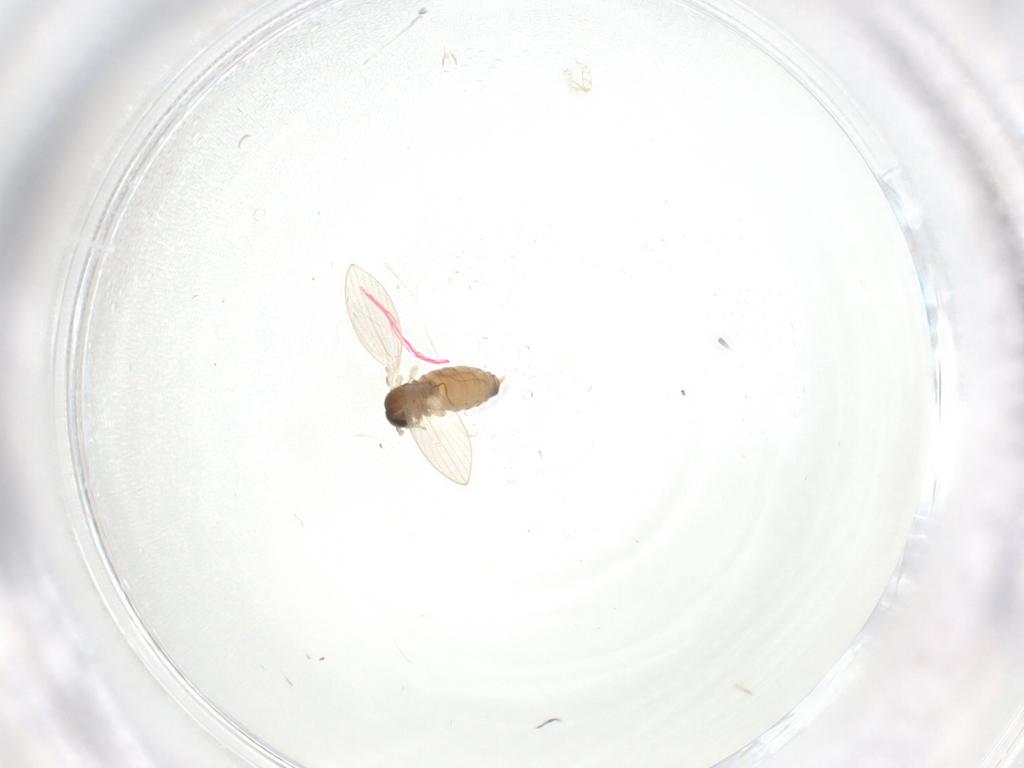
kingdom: Animalia
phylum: Arthropoda
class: Insecta
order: Diptera
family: Psychodidae
